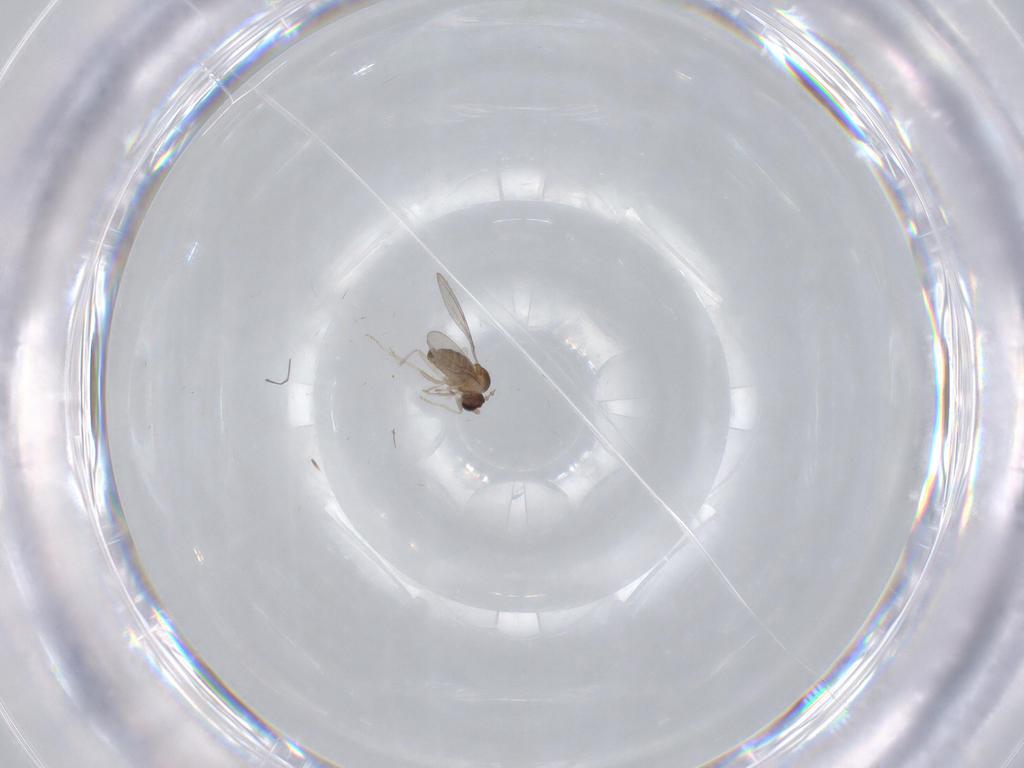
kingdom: Animalia
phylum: Arthropoda
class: Insecta
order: Diptera
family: Cecidomyiidae
